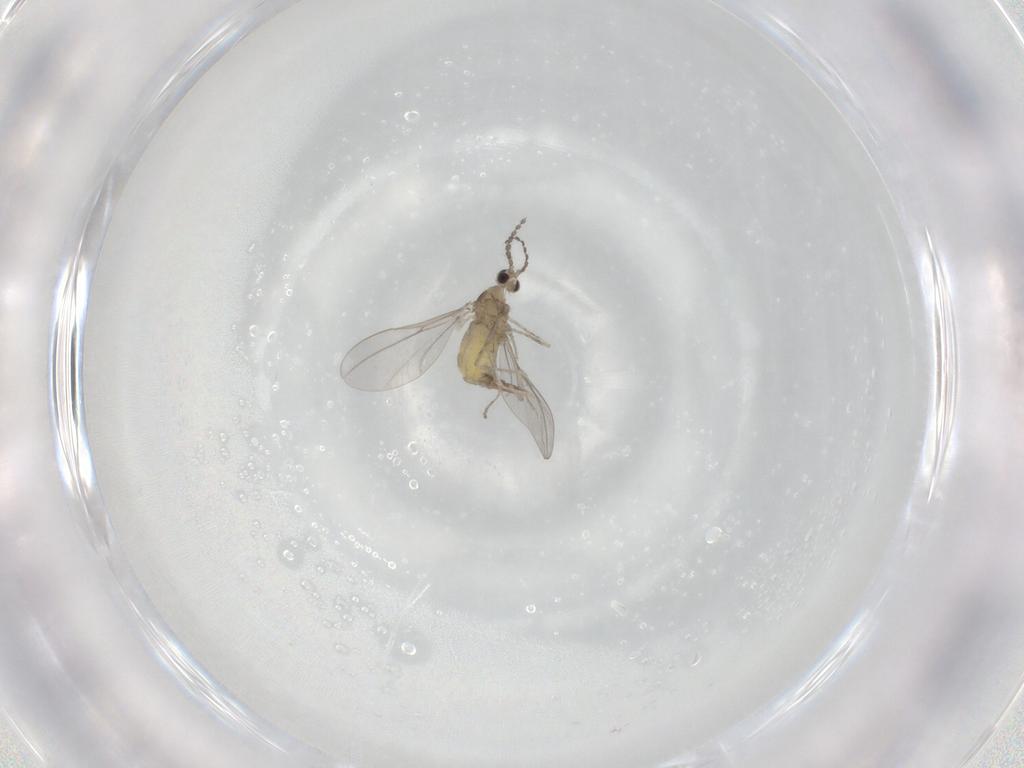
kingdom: Animalia
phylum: Arthropoda
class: Insecta
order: Diptera
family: Cecidomyiidae
